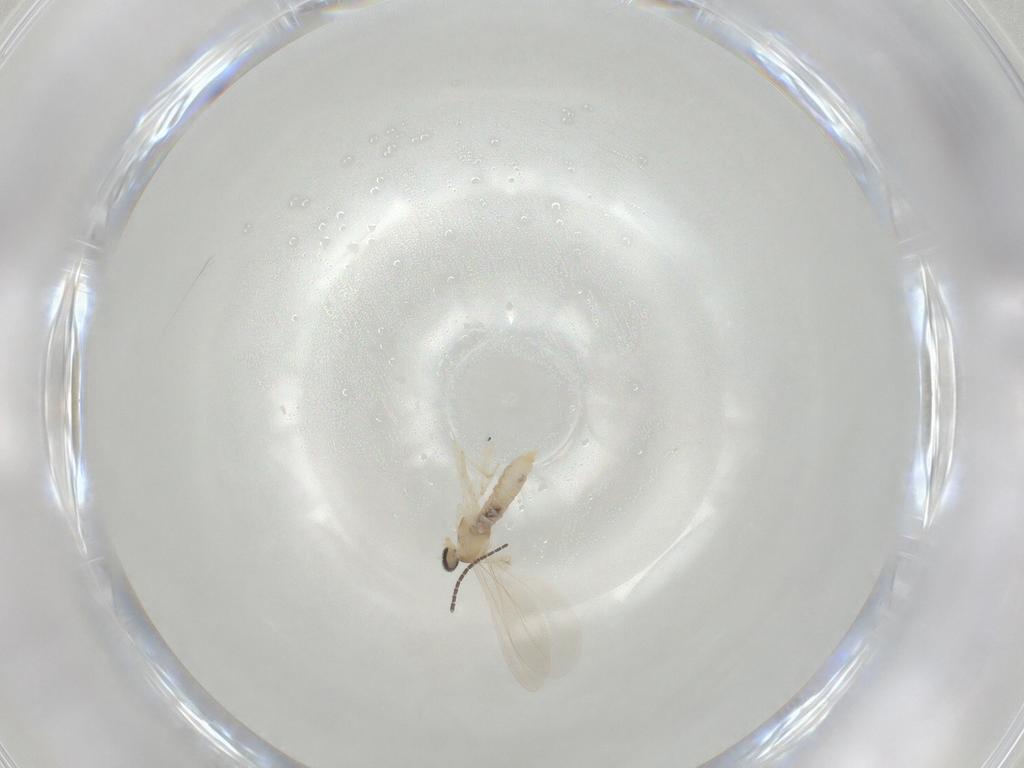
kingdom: Animalia
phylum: Arthropoda
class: Insecta
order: Diptera
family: Cecidomyiidae
